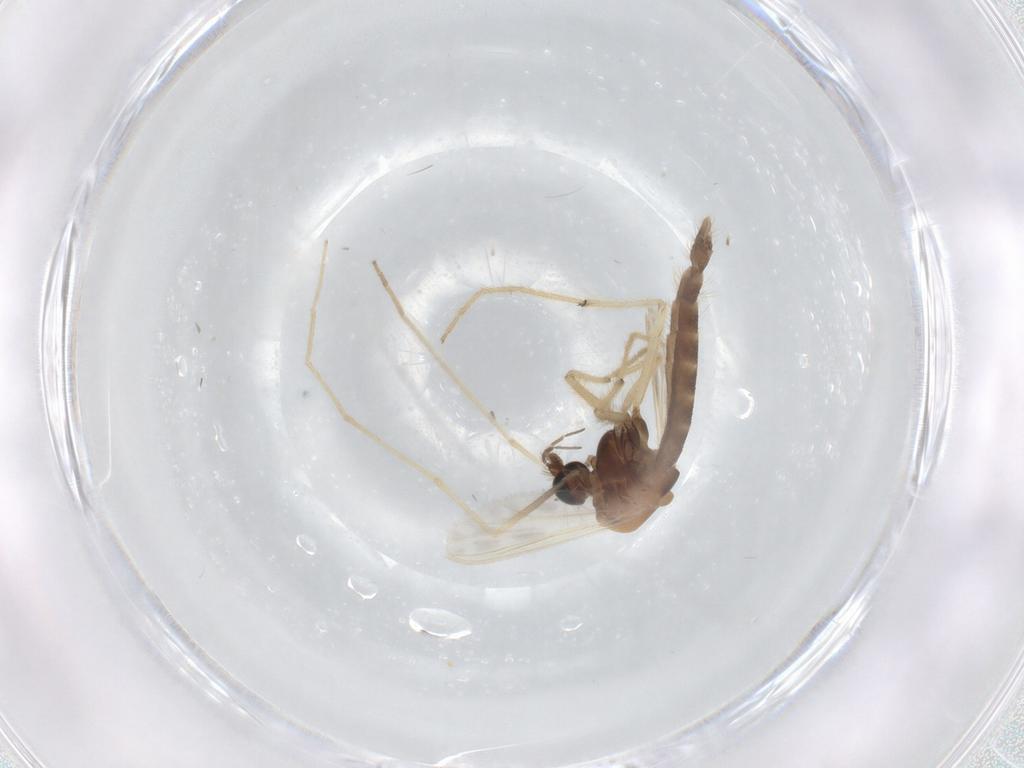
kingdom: Animalia
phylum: Arthropoda
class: Insecta
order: Diptera
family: Chironomidae
